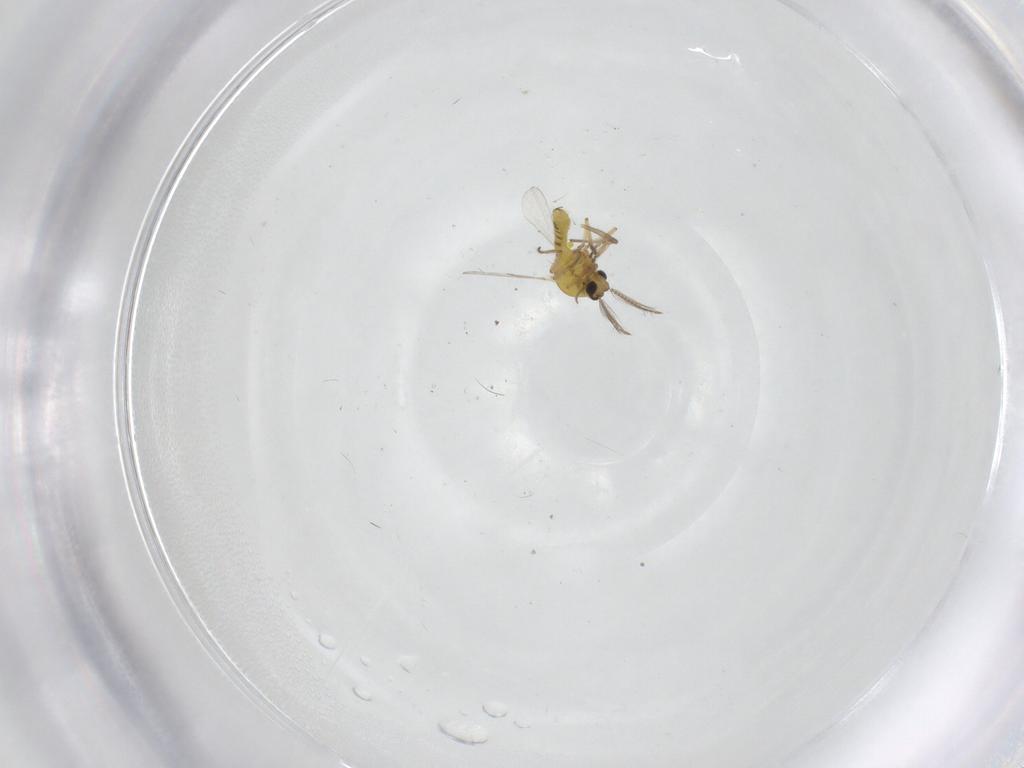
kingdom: Animalia
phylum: Arthropoda
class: Insecta
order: Diptera
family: Ceratopogonidae
